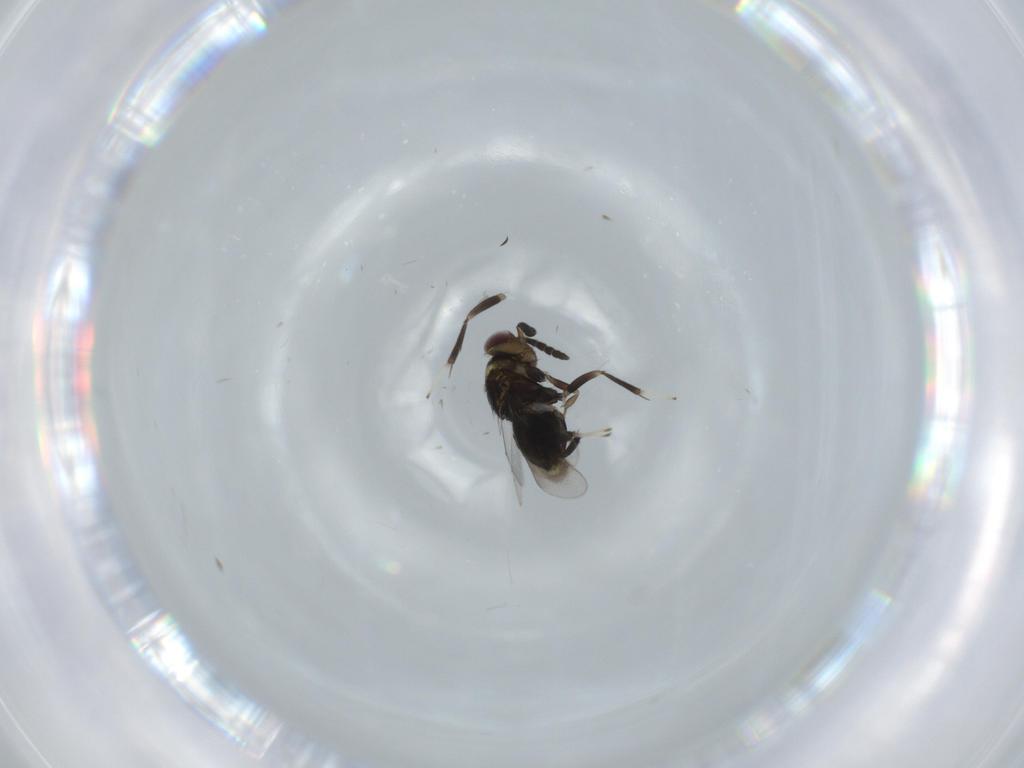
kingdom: Animalia
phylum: Arthropoda
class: Insecta
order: Hymenoptera
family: Aphelinidae
